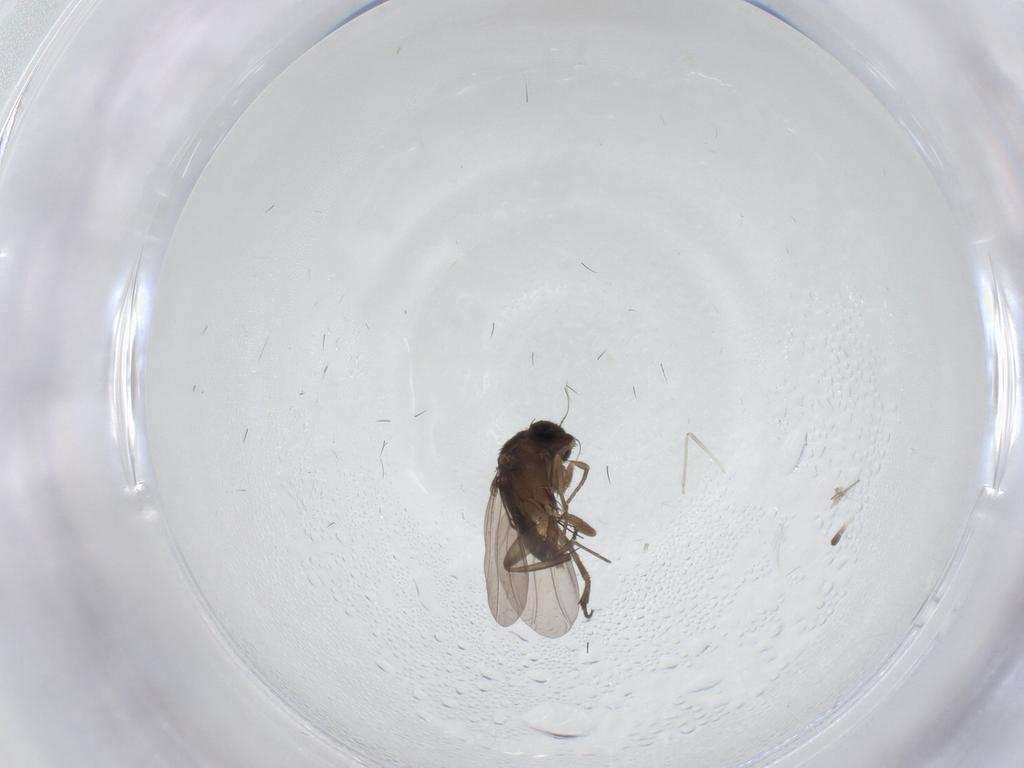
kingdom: Animalia
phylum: Arthropoda
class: Insecta
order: Diptera
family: Phoridae
